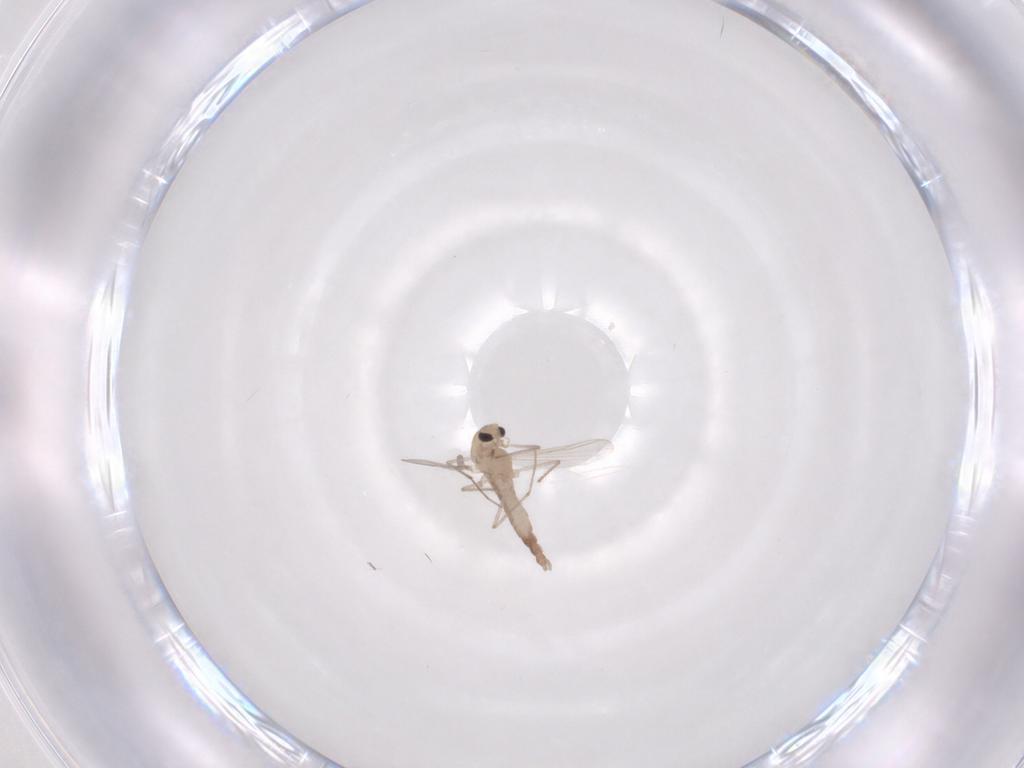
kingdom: Animalia
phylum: Arthropoda
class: Insecta
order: Diptera
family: Chironomidae
